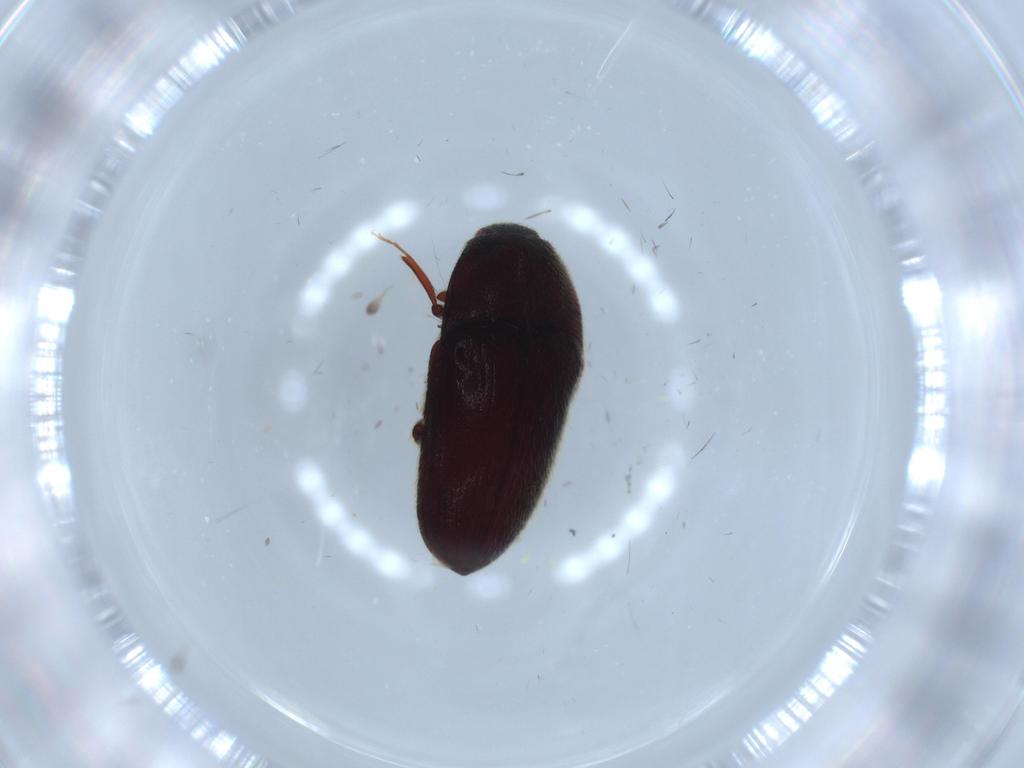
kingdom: Animalia
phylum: Arthropoda
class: Insecta
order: Coleoptera
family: Throscidae
